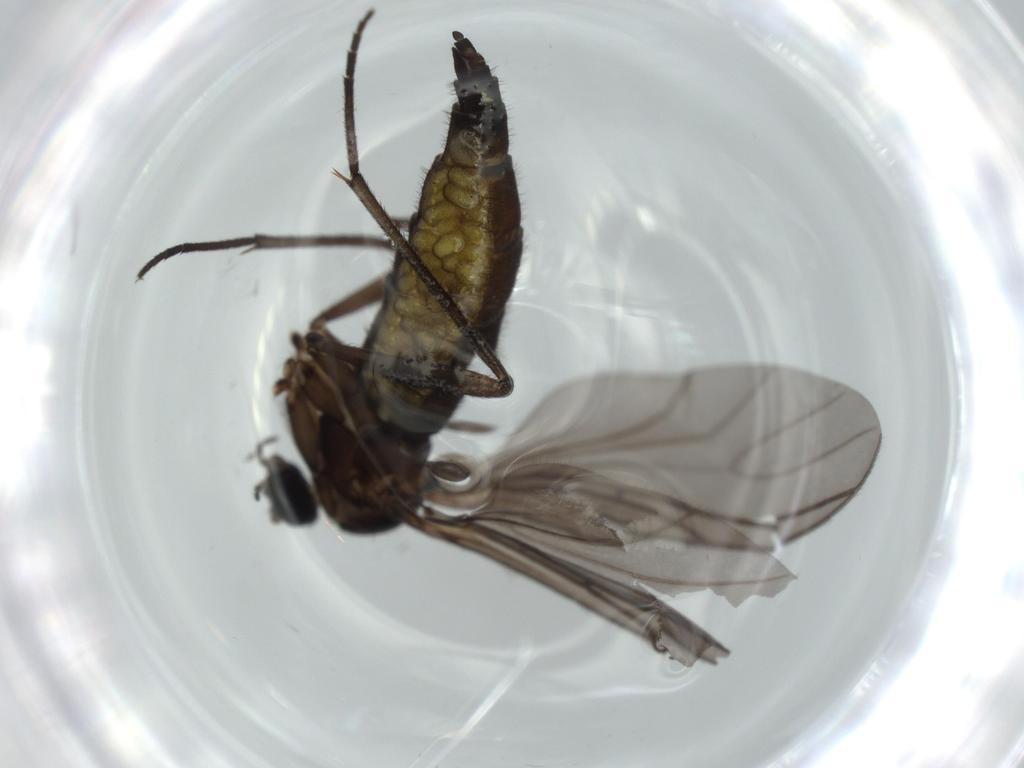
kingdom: Animalia
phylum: Arthropoda
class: Insecta
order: Diptera
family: Sciaridae
